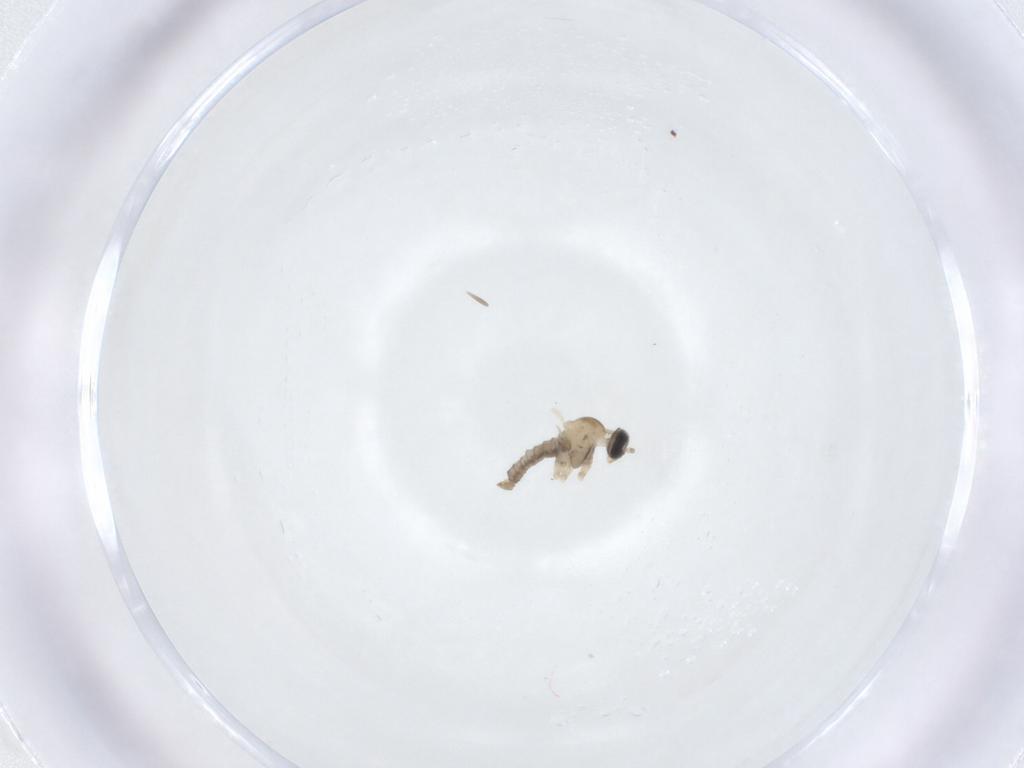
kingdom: Animalia
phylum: Arthropoda
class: Insecta
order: Diptera
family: Cecidomyiidae
